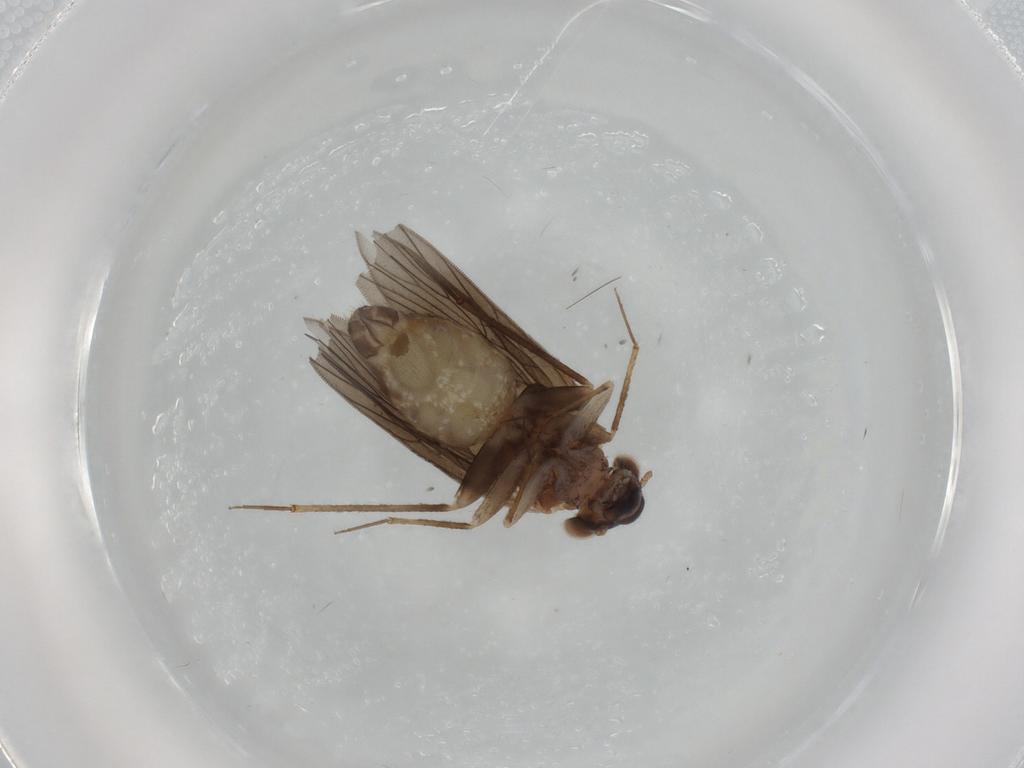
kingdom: Animalia
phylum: Arthropoda
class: Insecta
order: Psocodea
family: Lepidopsocidae
